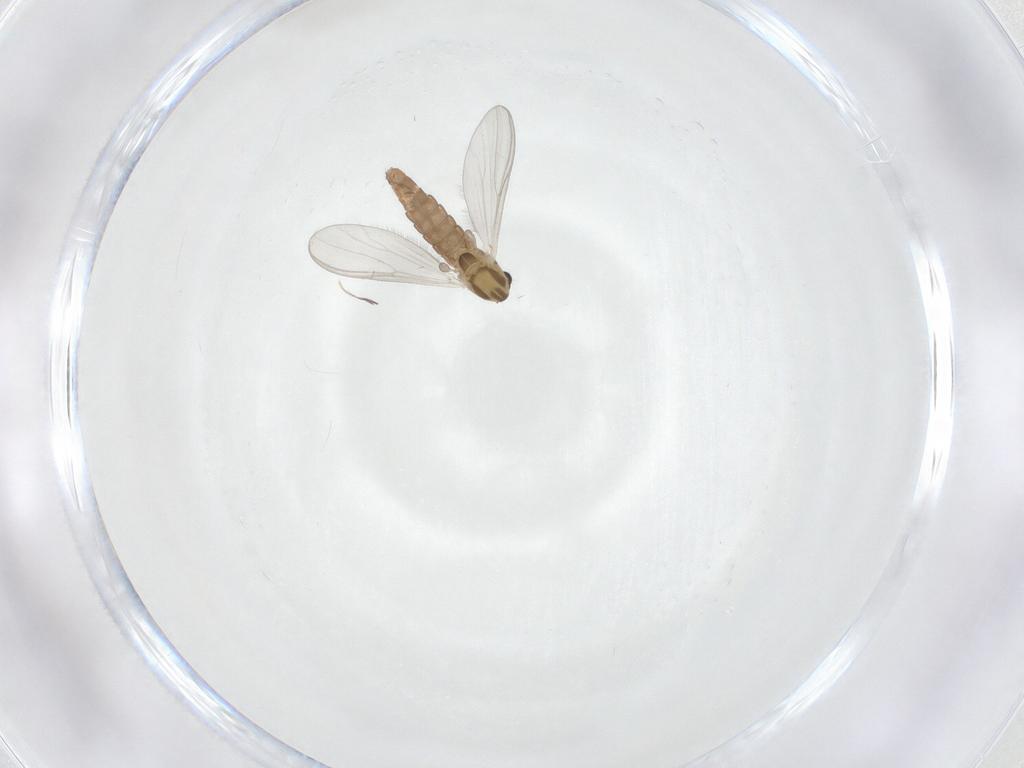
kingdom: Animalia
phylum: Arthropoda
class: Insecta
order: Diptera
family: Chironomidae
